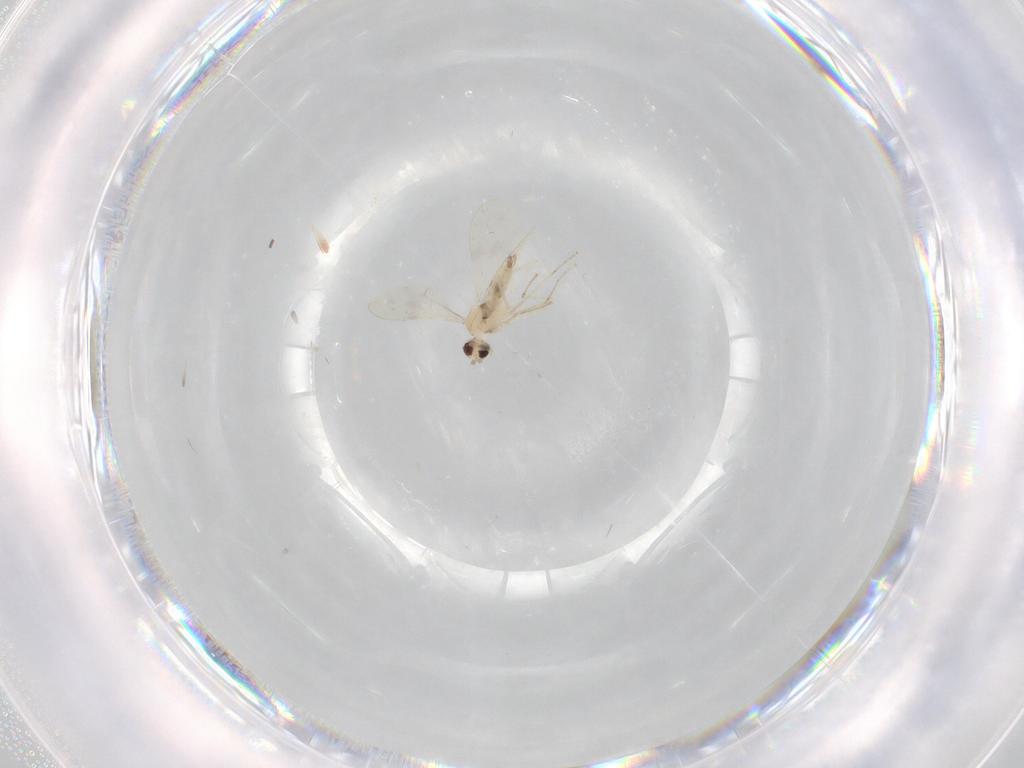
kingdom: Animalia
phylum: Arthropoda
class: Insecta
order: Diptera
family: Cecidomyiidae
